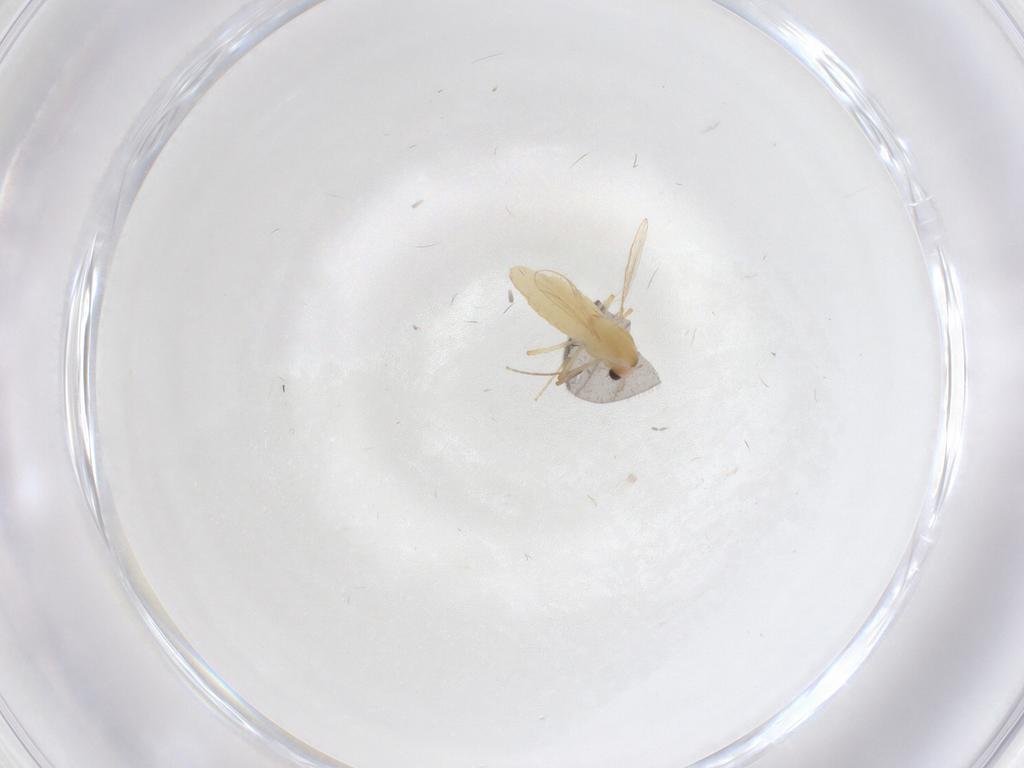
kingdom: Animalia
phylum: Arthropoda
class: Insecta
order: Diptera
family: Chironomidae
